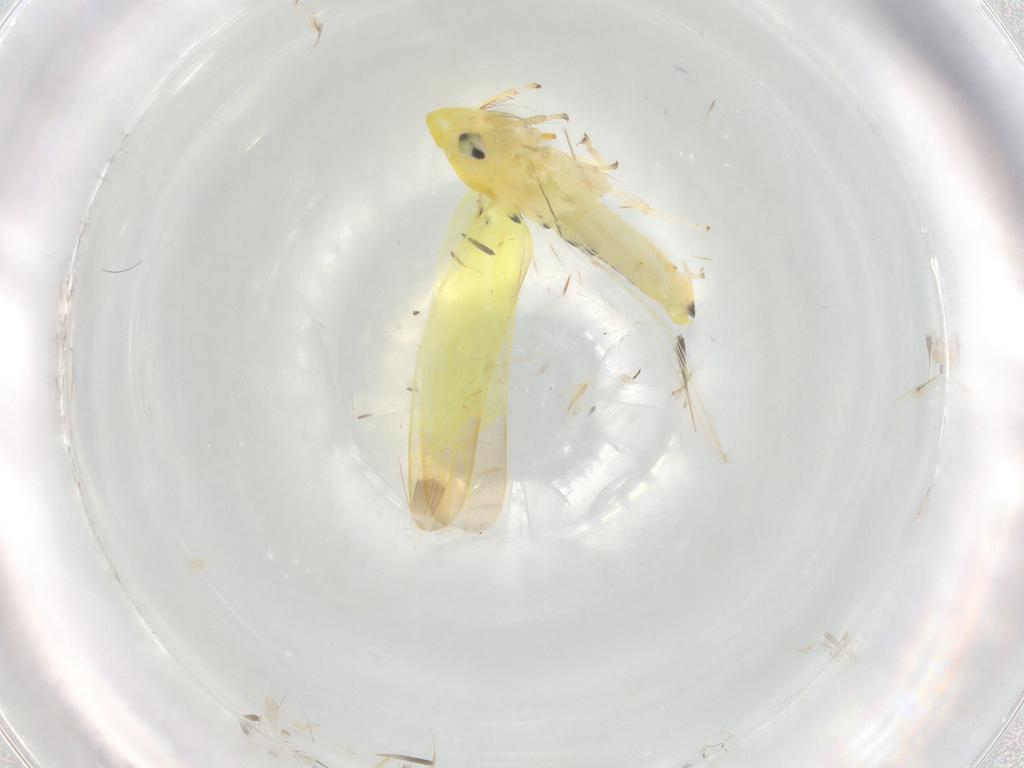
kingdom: Animalia
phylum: Arthropoda
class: Insecta
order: Hemiptera
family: Cicadellidae
